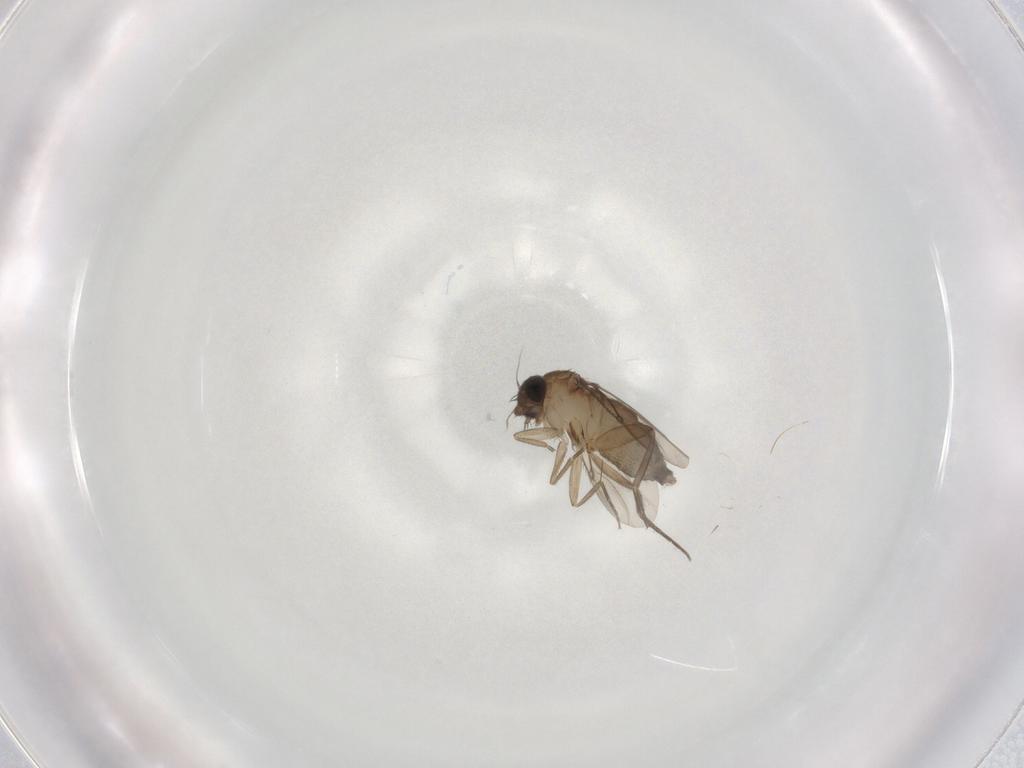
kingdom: Animalia
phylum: Arthropoda
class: Insecta
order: Diptera
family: Phoridae
